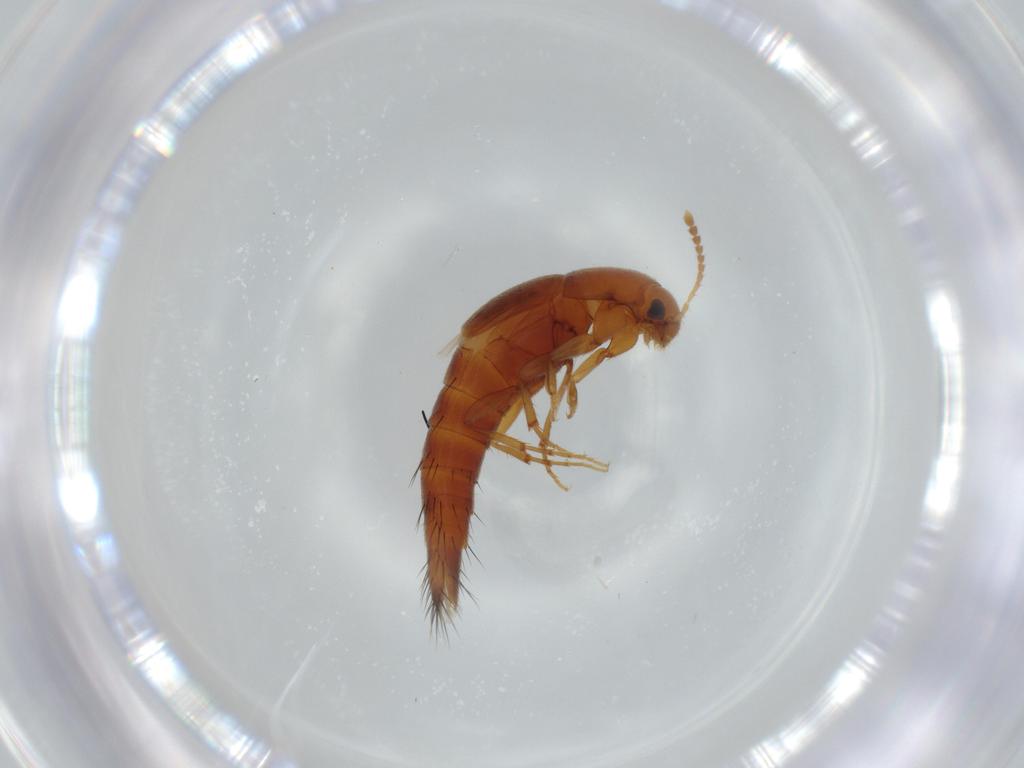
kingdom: Animalia
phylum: Arthropoda
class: Insecta
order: Coleoptera
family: Staphylinidae
